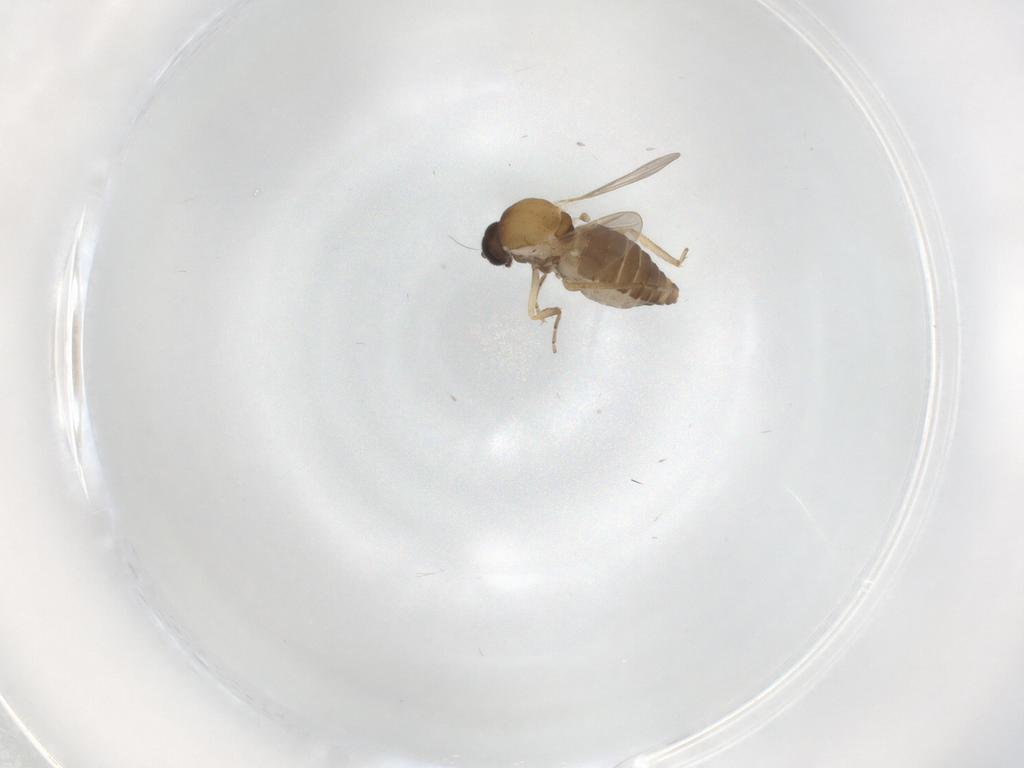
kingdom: Animalia
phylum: Arthropoda
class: Insecta
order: Diptera
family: Ceratopogonidae
